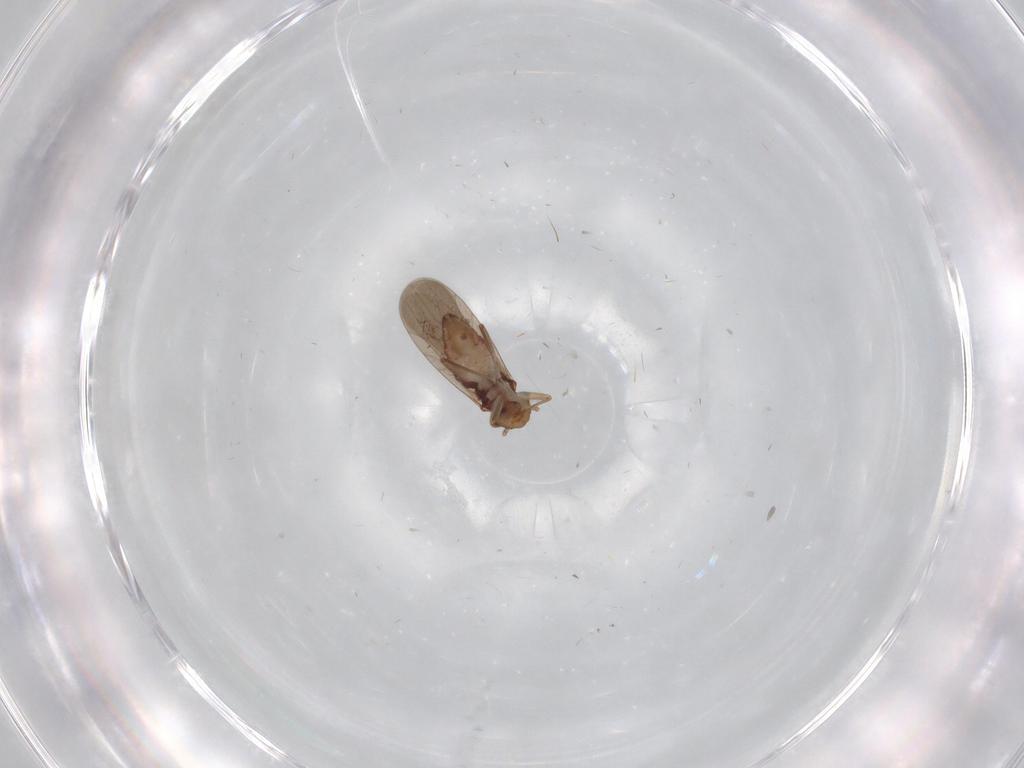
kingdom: Animalia
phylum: Arthropoda
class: Insecta
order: Psocodea
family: Lepidopsocidae
